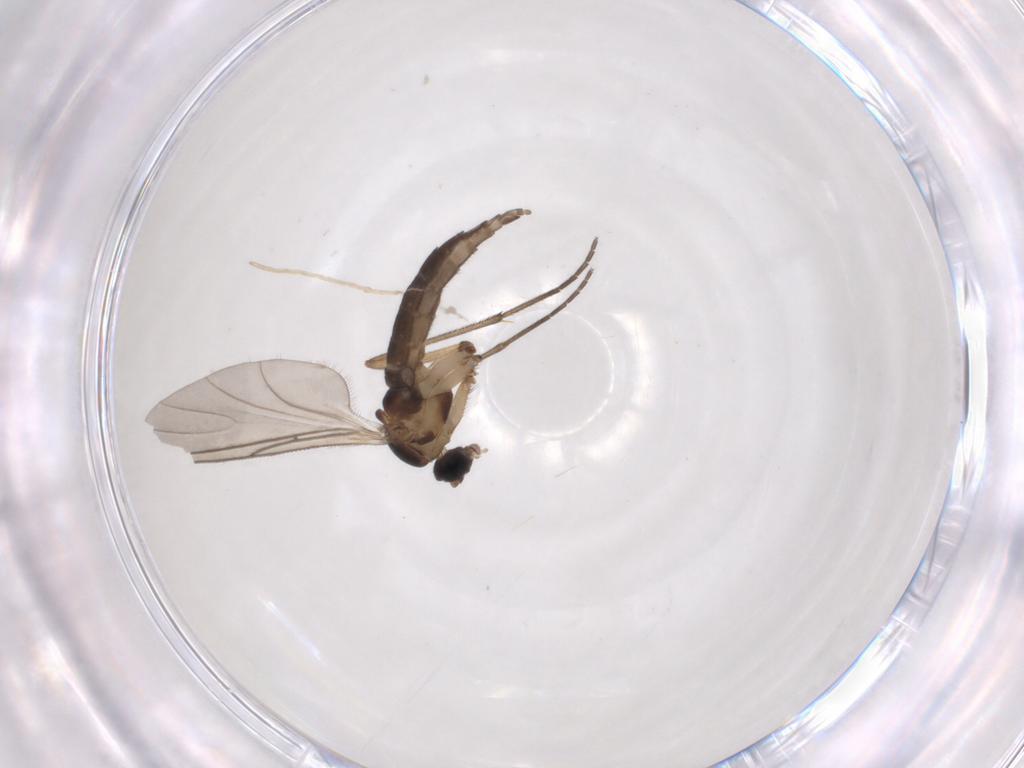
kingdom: Animalia
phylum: Arthropoda
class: Insecta
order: Diptera
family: Sciaridae
